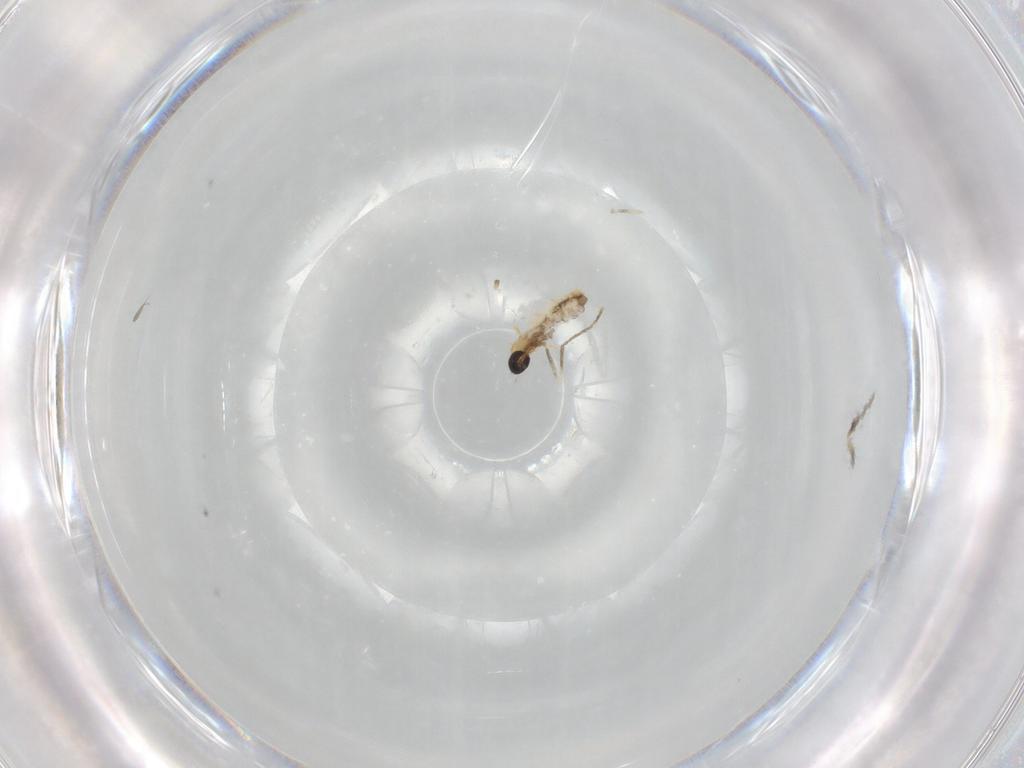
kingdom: Animalia
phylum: Arthropoda
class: Insecta
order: Diptera
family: Cecidomyiidae
